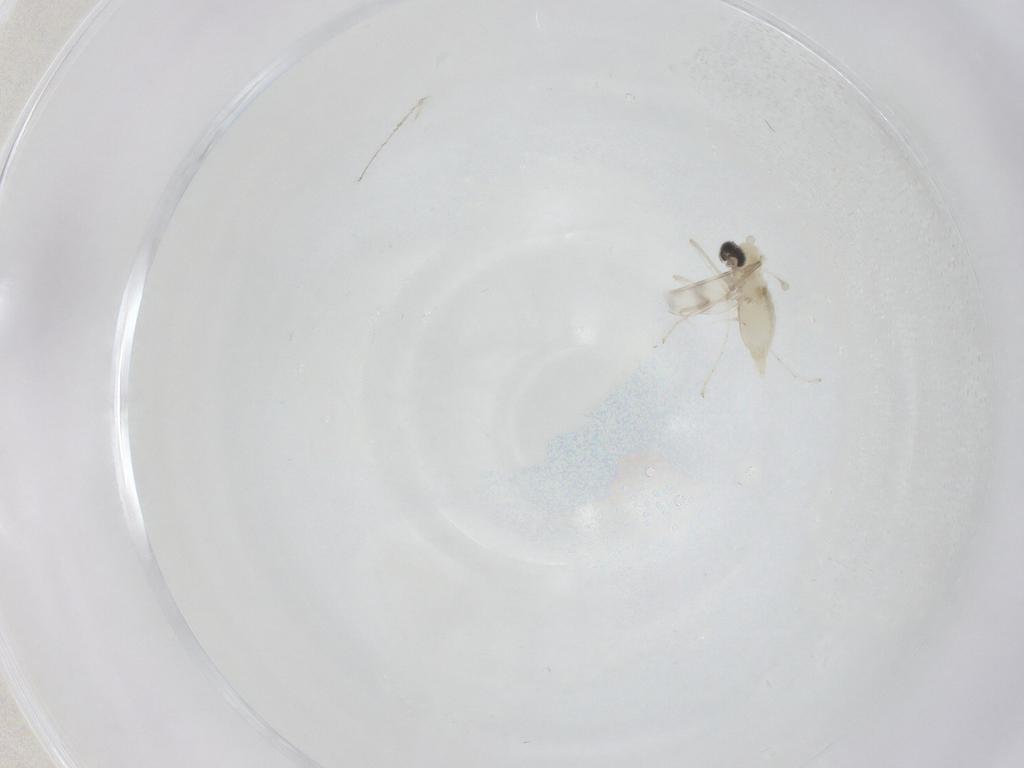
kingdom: Animalia
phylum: Arthropoda
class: Insecta
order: Diptera
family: Cecidomyiidae
